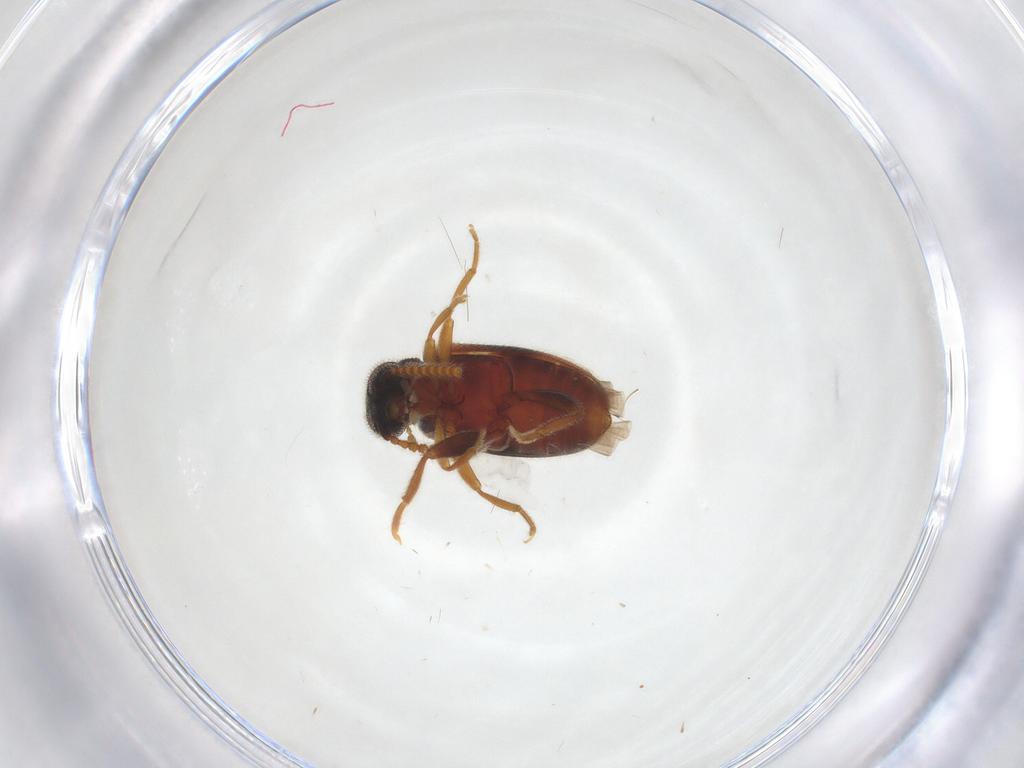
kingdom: Animalia
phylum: Arthropoda
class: Insecta
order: Coleoptera
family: Aderidae
